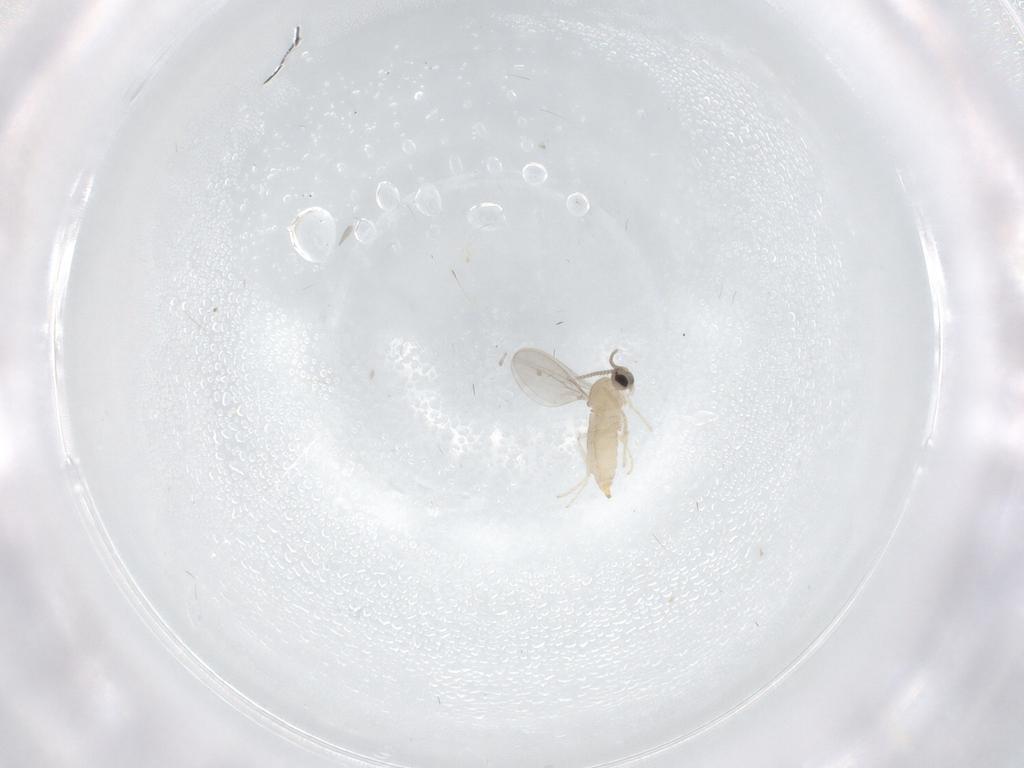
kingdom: Animalia
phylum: Arthropoda
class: Insecta
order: Diptera
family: Cecidomyiidae
